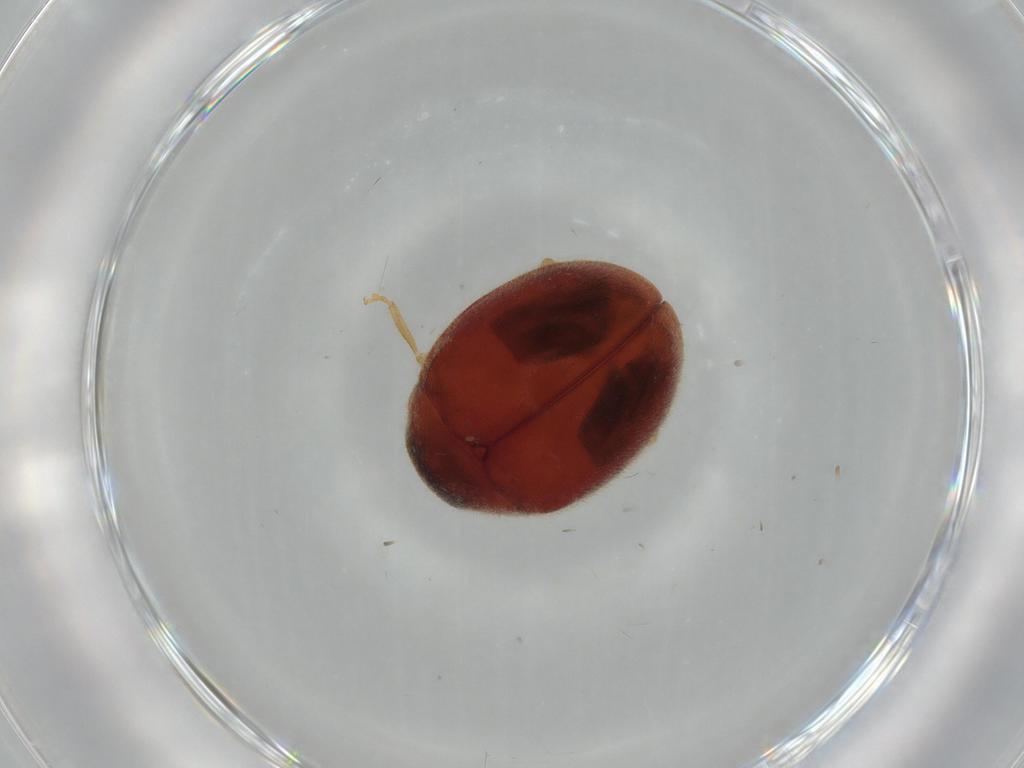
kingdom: Animalia
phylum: Arthropoda
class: Insecta
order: Coleoptera
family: Coccinellidae
